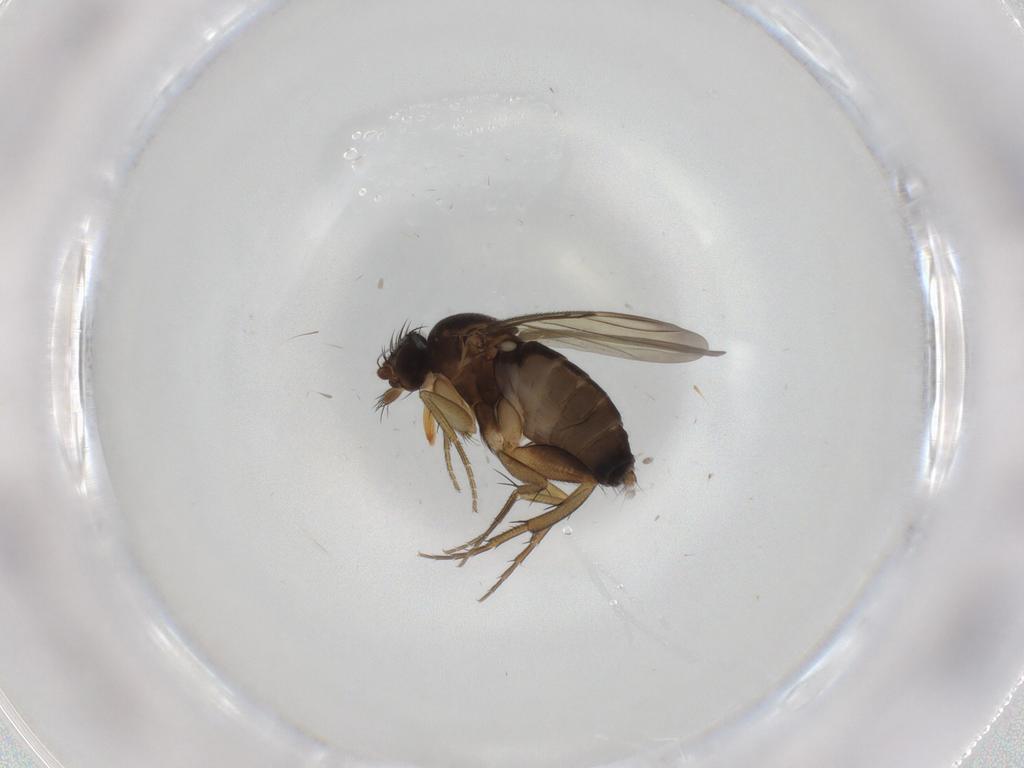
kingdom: Animalia
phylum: Arthropoda
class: Insecta
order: Diptera
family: Phoridae
